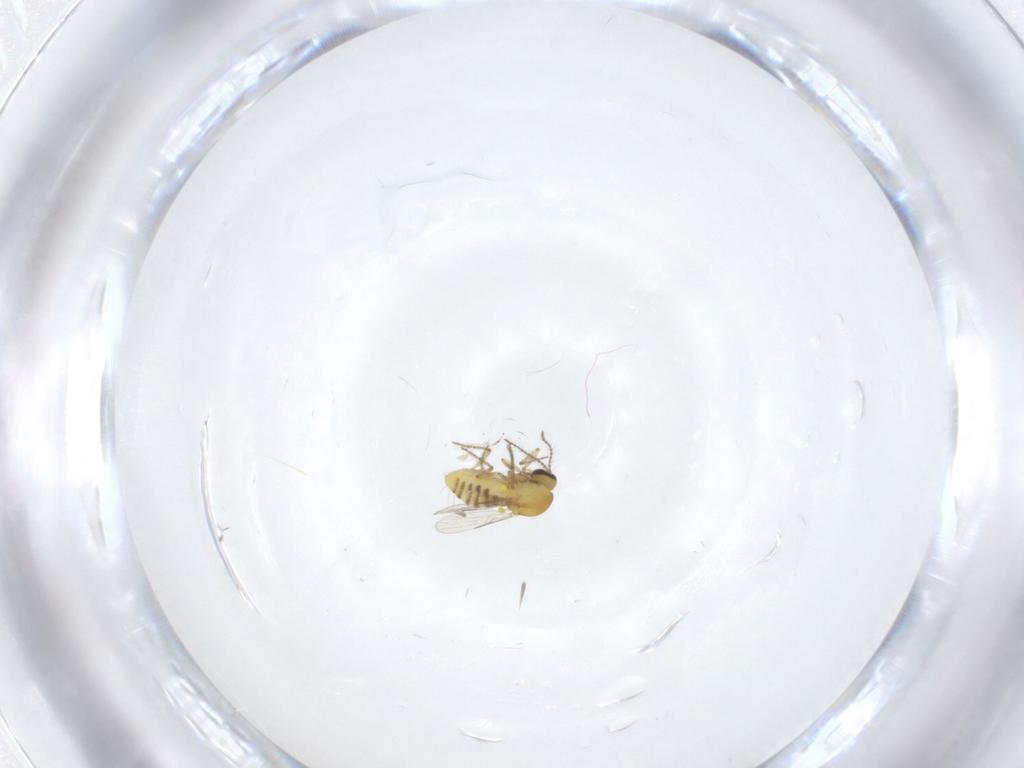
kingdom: Animalia
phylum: Arthropoda
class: Insecta
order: Diptera
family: Ceratopogonidae
